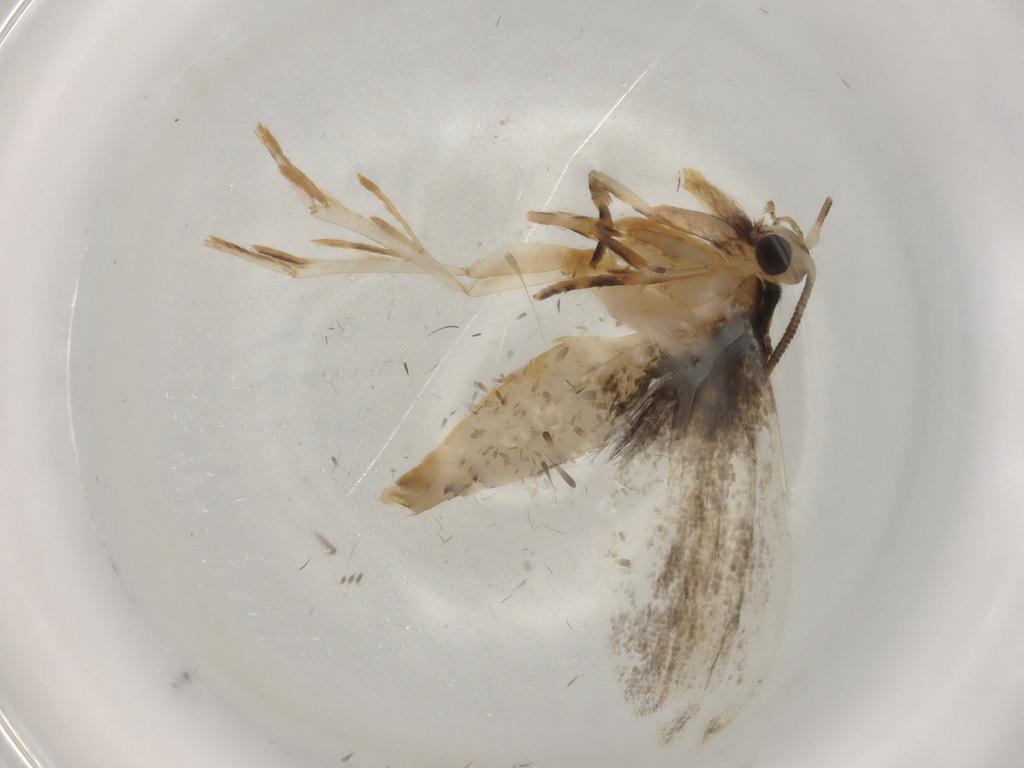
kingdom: Animalia
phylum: Arthropoda
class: Insecta
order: Lepidoptera
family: Tineidae
